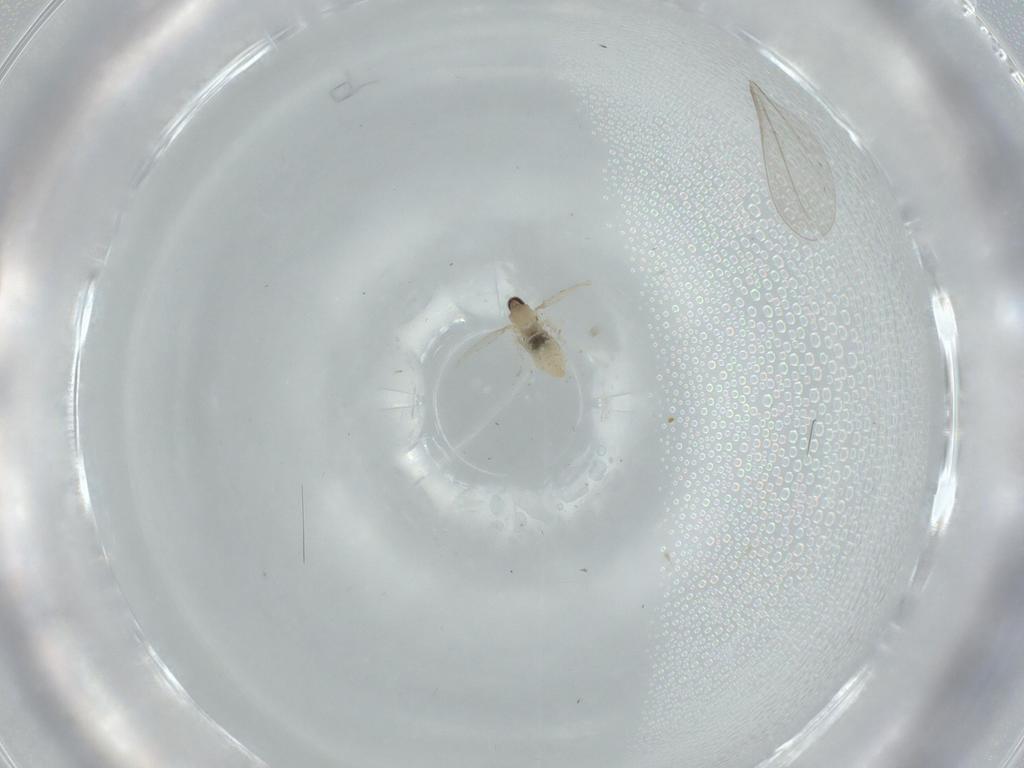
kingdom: Animalia
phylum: Arthropoda
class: Insecta
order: Diptera
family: Cecidomyiidae
